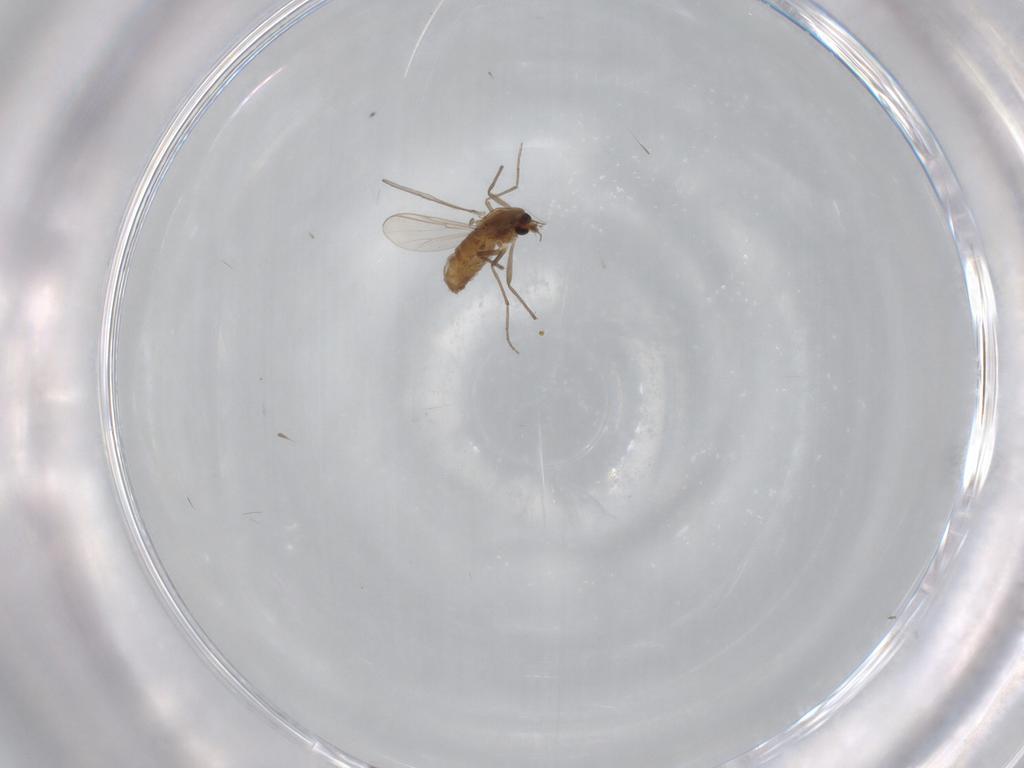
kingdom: Animalia
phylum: Arthropoda
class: Insecta
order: Diptera
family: Chironomidae
